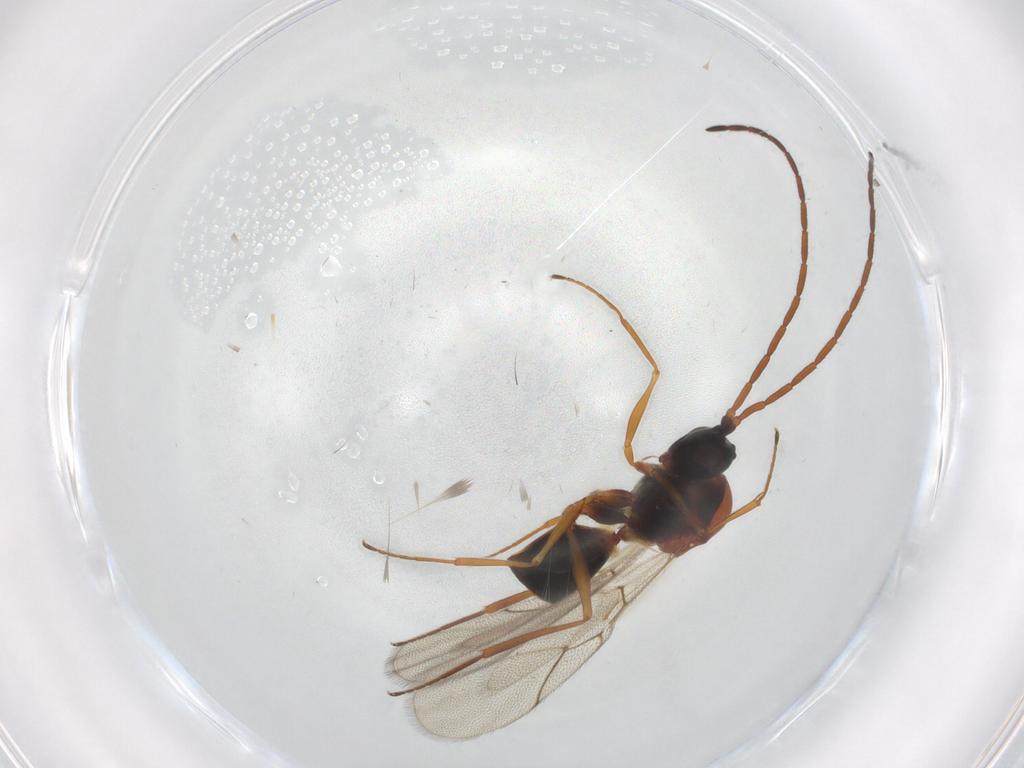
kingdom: Animalia
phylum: Arthropoda
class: Insecta
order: Hymenoptera
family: Figitidae
